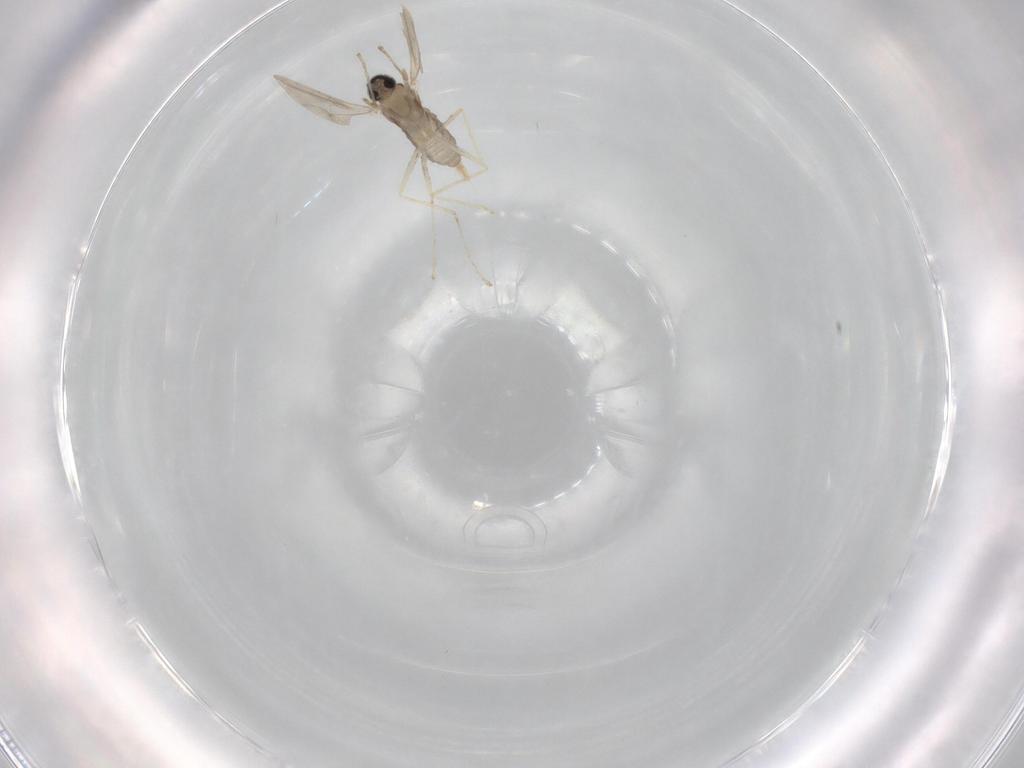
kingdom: Animalia
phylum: Arthropoda
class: Insecta
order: Diptera
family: Cecidomyiidae
